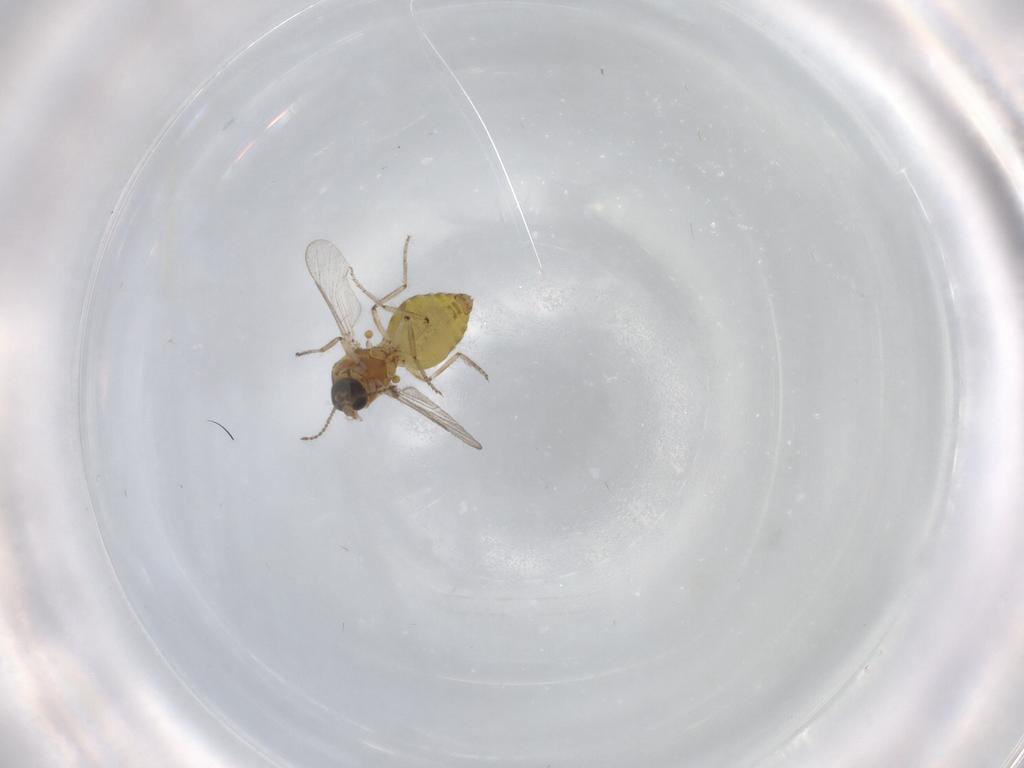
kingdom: Animalia
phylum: Arthropoda
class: Insecta
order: Diptera
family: Ceratopogonidae
